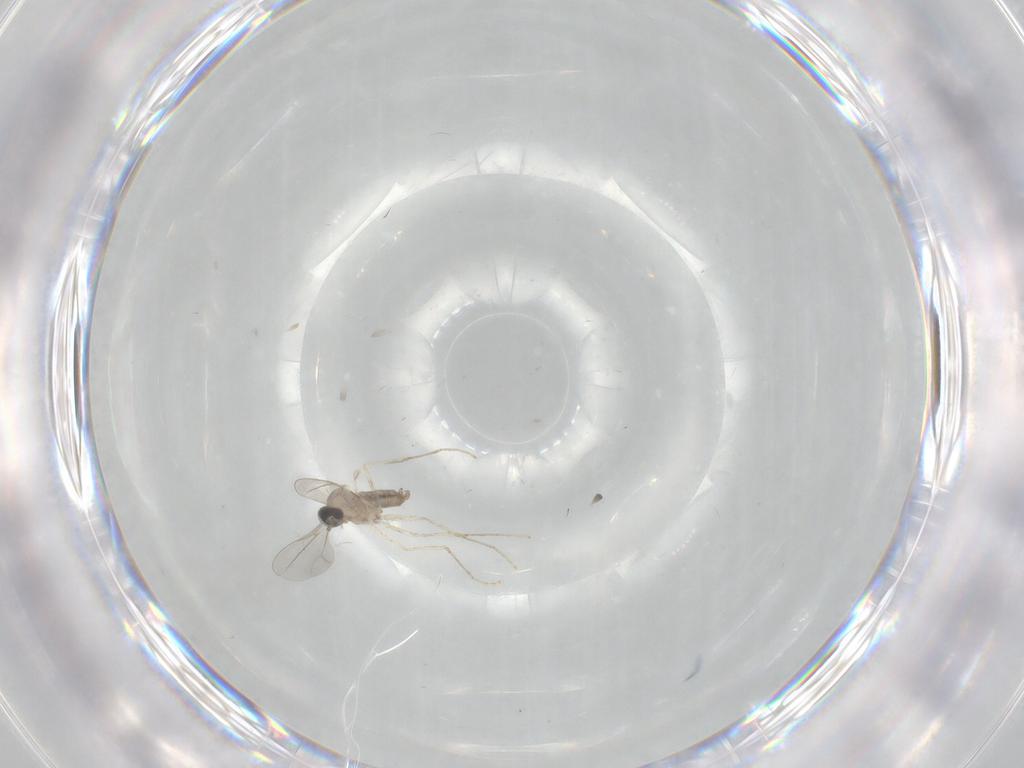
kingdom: Animalia
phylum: Arthropoda
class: Insecta
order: Diptera
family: Cecidomyiidae
